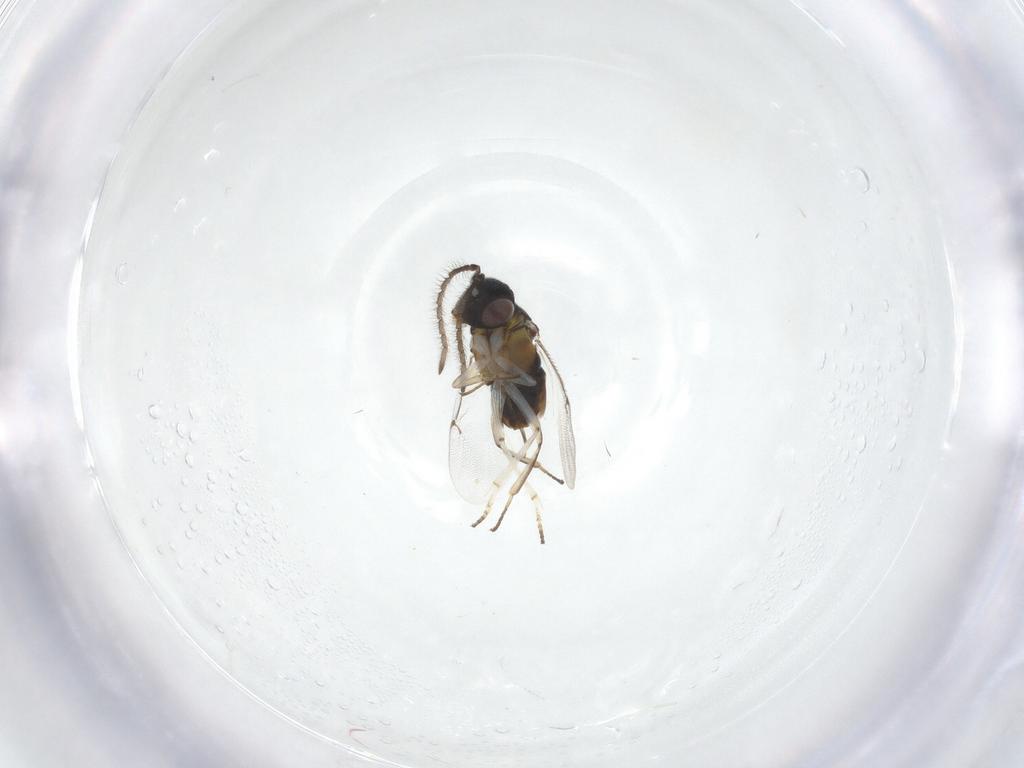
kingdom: Animalia
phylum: Arthropoda
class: Insecta
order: Hymenoptera
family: Encyrtidae
